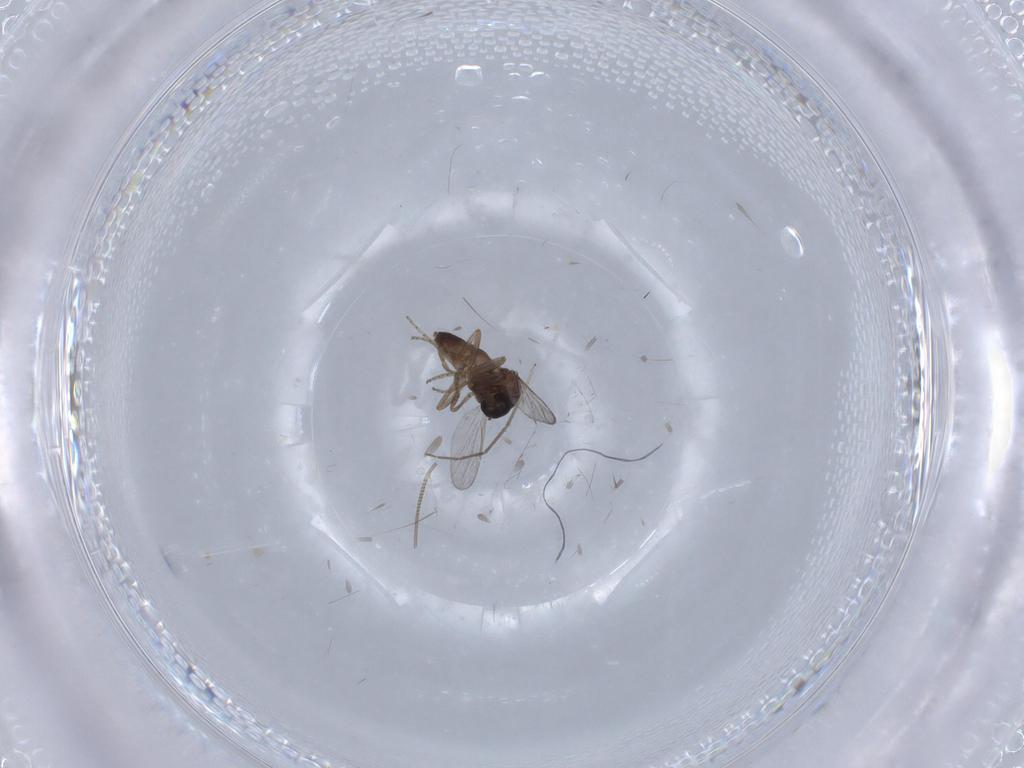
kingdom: Animalia
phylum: Arthropoda
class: Insecta
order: Diptera
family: Ceratopogonidae
